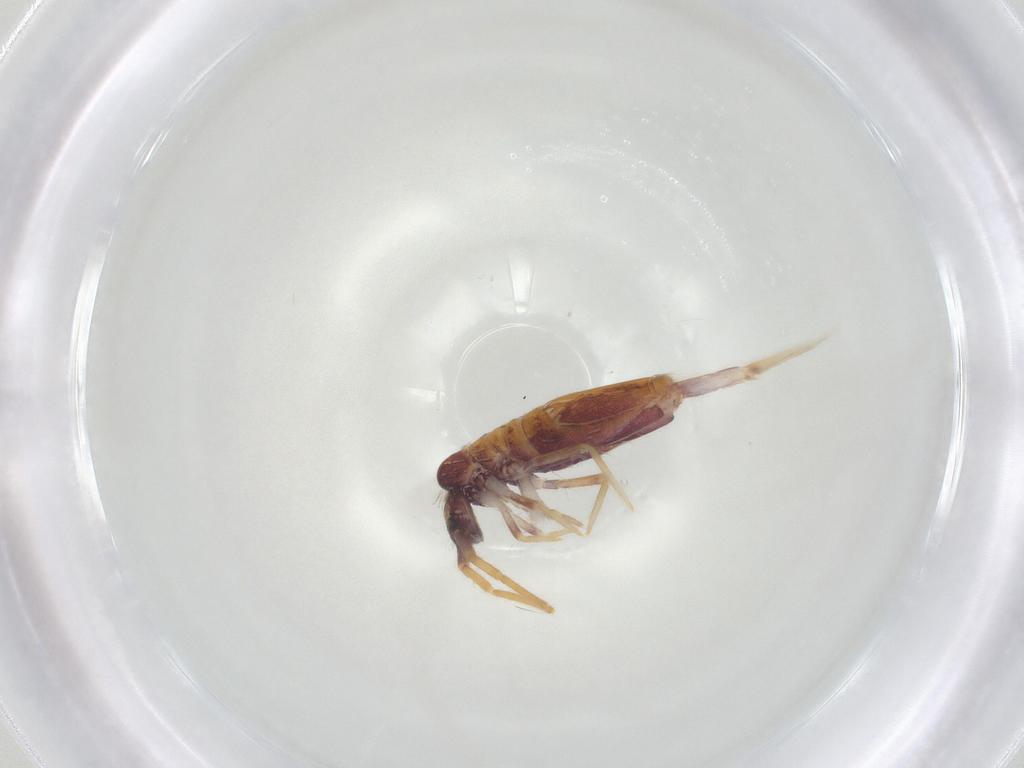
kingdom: Animalia
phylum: Arthropoda
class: Collembola
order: Entomobryomorpha
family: Entomobryidae
